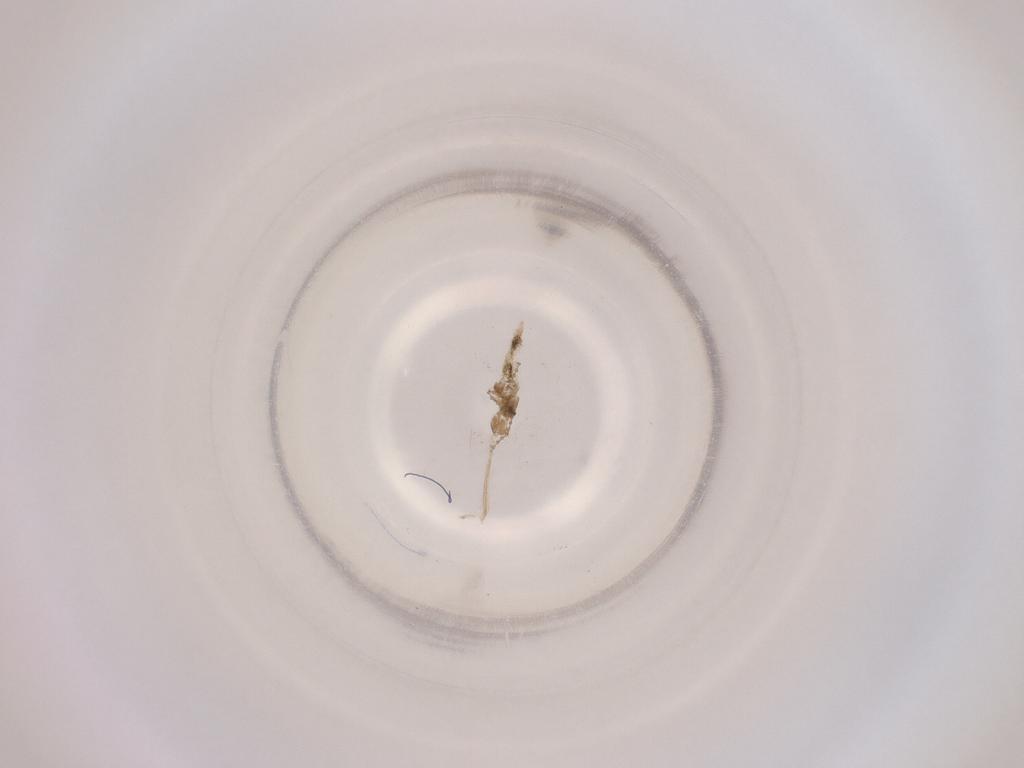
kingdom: Animalia
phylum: Arthropoda
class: Insecta
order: Diptera
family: Cecidomyiidae
